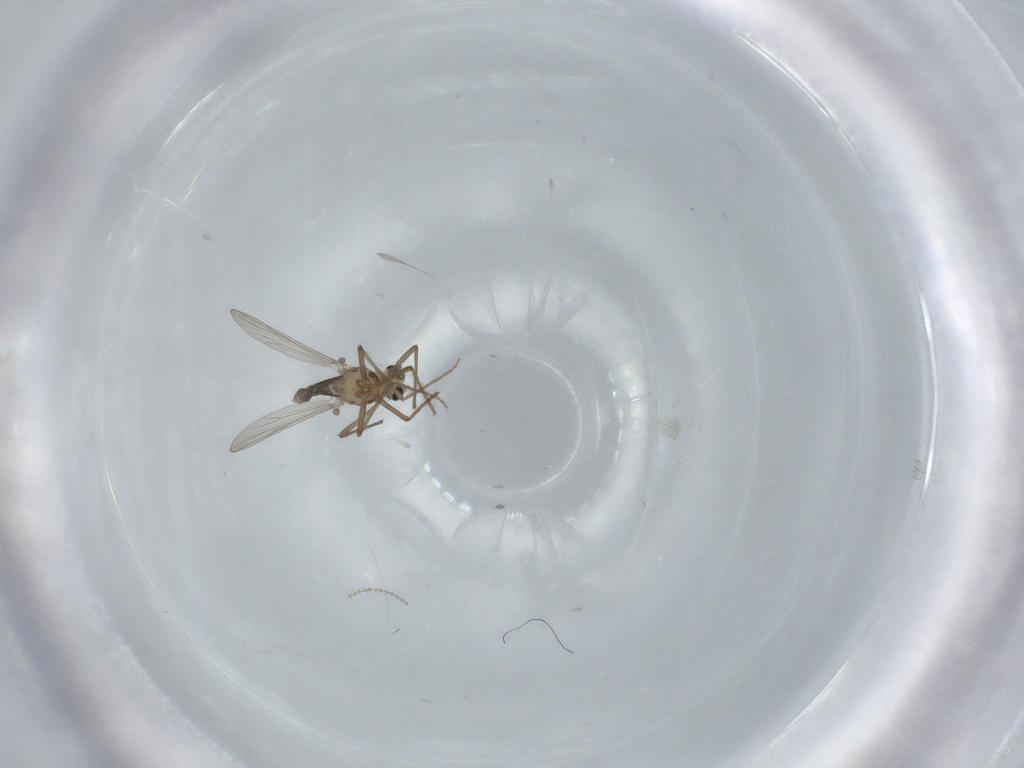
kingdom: Animalia
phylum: Arthropoda
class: Insecta
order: Diptera
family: Chironomidae
